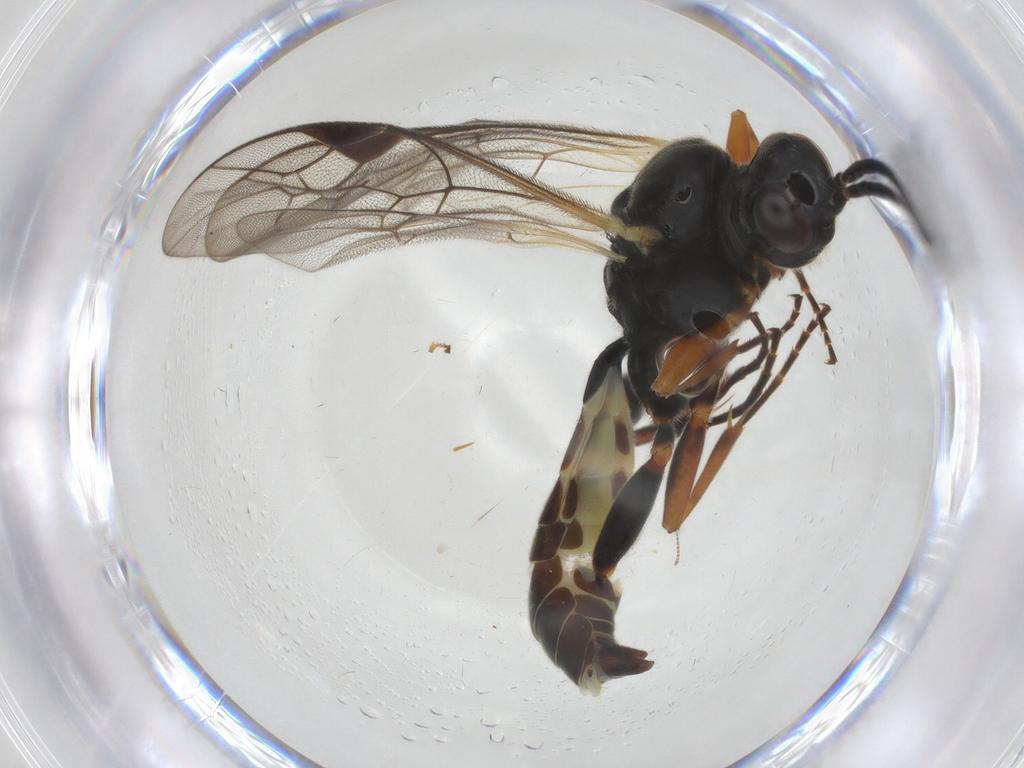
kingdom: Animalia
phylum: Arthropoda
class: Insecta
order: Hymenoptera
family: Ichneumonidae
